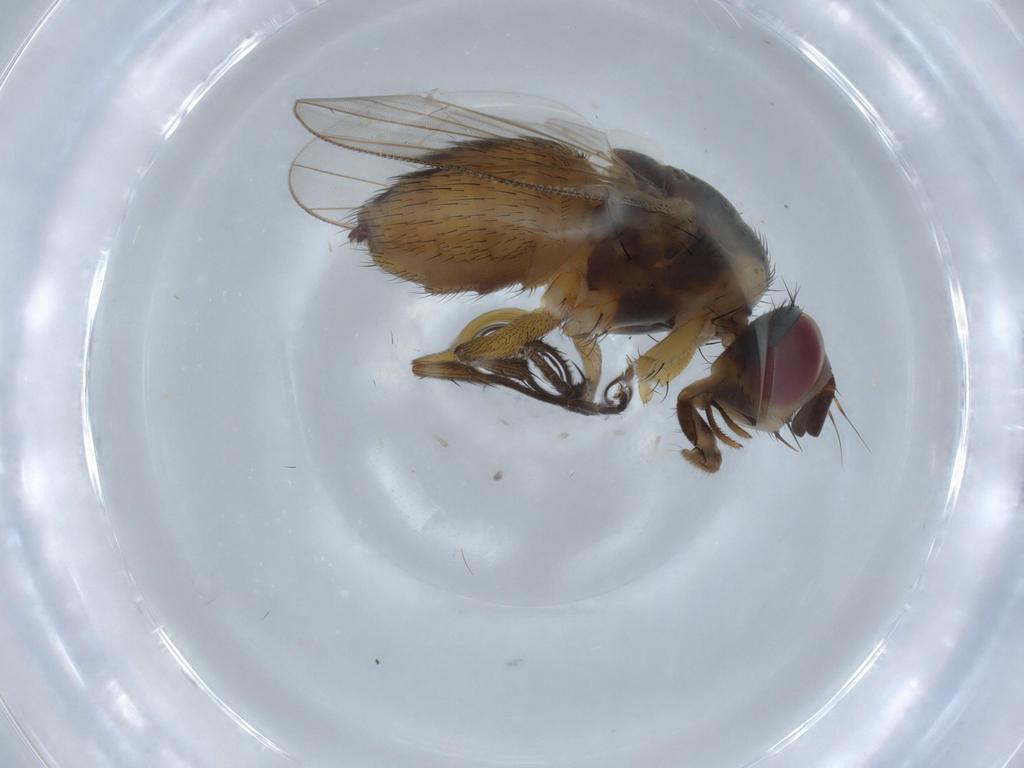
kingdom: Animalia
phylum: Arthropoda
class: Insecta
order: Diptera
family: Muscidae
